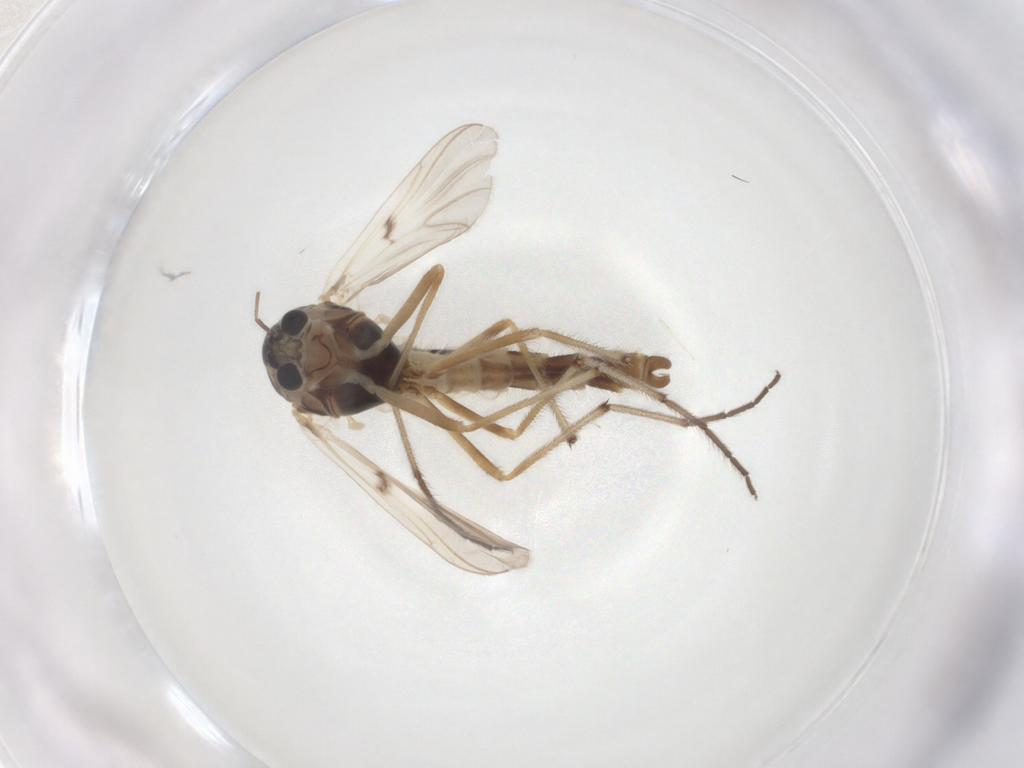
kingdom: Animalia
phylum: Arthropoda
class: Insecta
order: Diptera
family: Chironomidae
